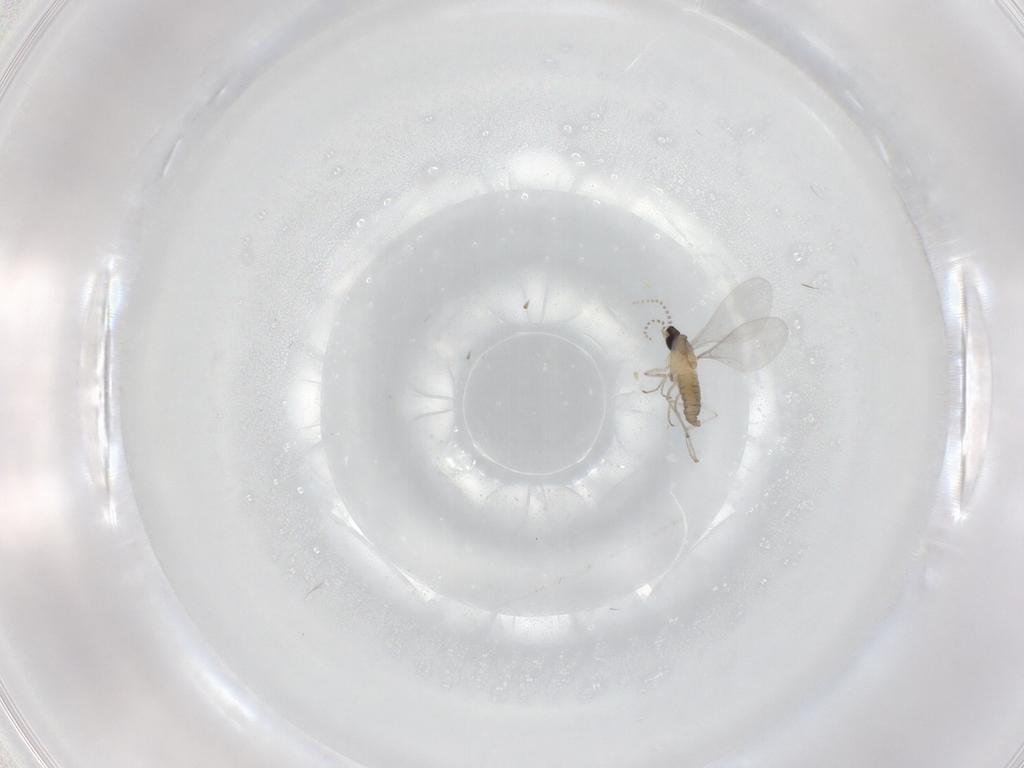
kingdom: Animalia
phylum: Arthropoda
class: Insecta
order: Diptera
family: Cecidomyiidae
